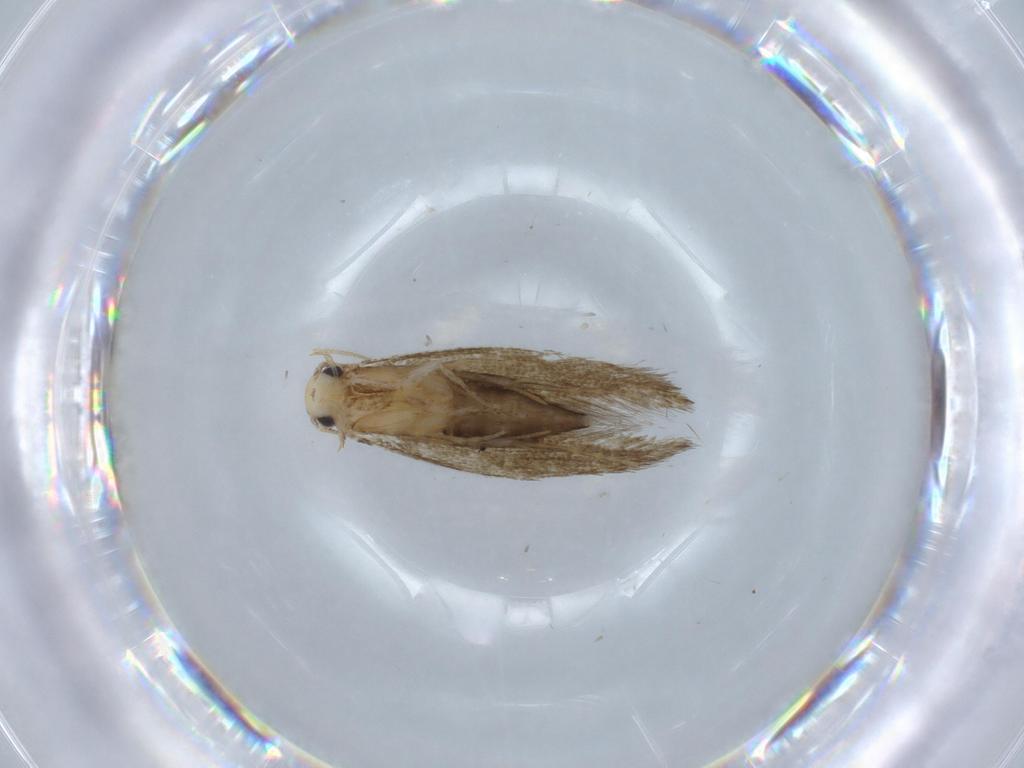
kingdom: Animalia
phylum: Arthropoda
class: Insecta
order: Lepidoptera
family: Tineidae
